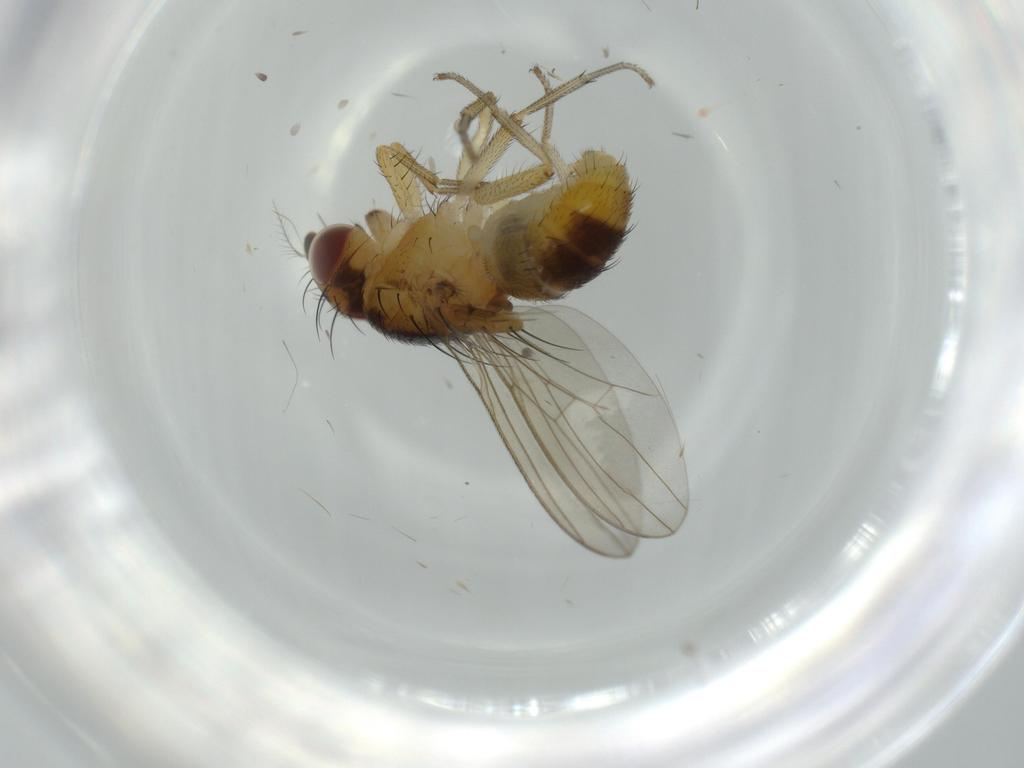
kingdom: Animalia
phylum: Arthropoda
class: Insecta
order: Diptera
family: Lauxaniidae
